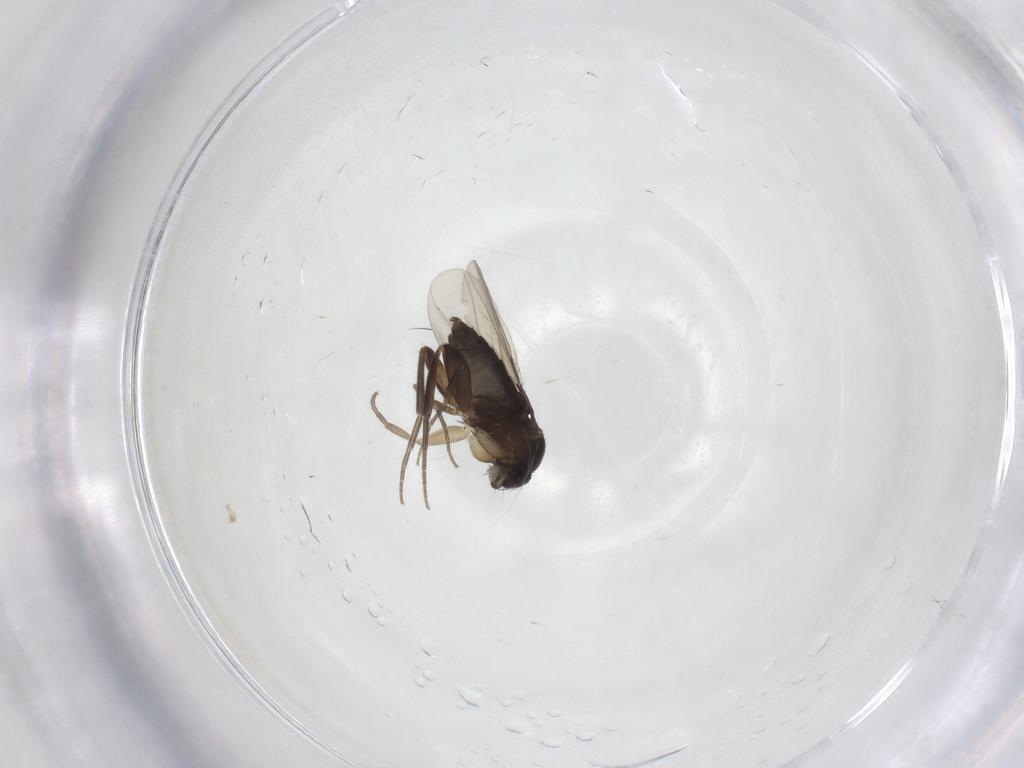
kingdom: Animalia
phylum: Arthropoda
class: Insecta
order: Diptera
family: Phoridae
